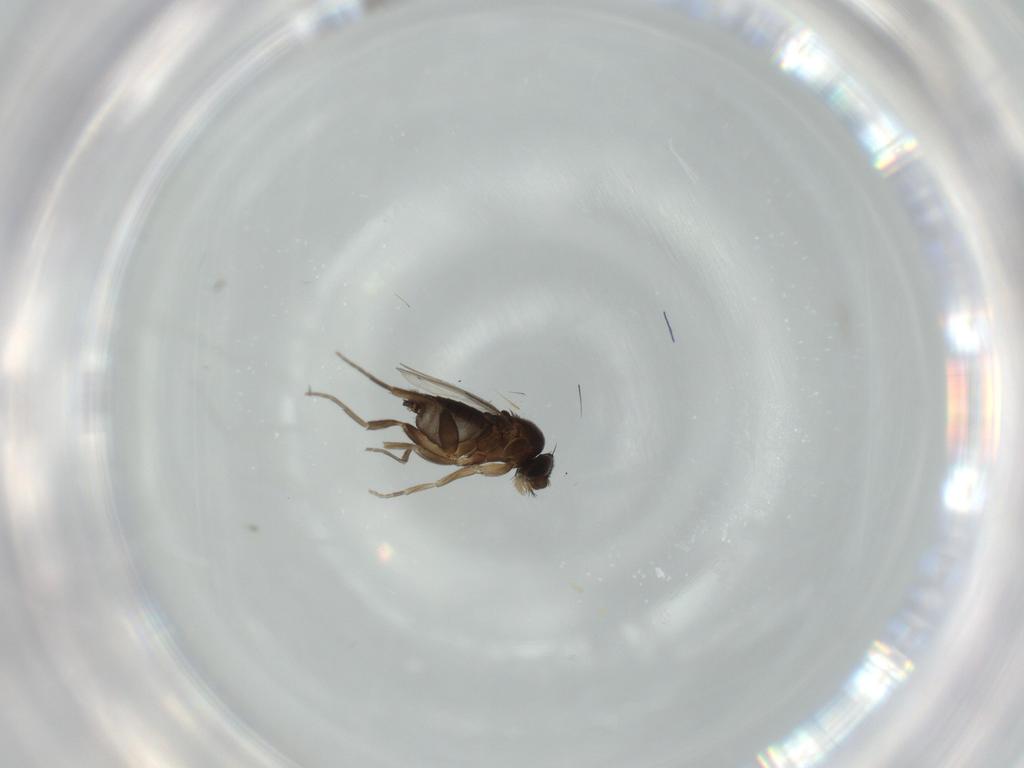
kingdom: Animalia
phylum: Arthropoda
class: Insecta
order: Diptera
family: Phoridae
